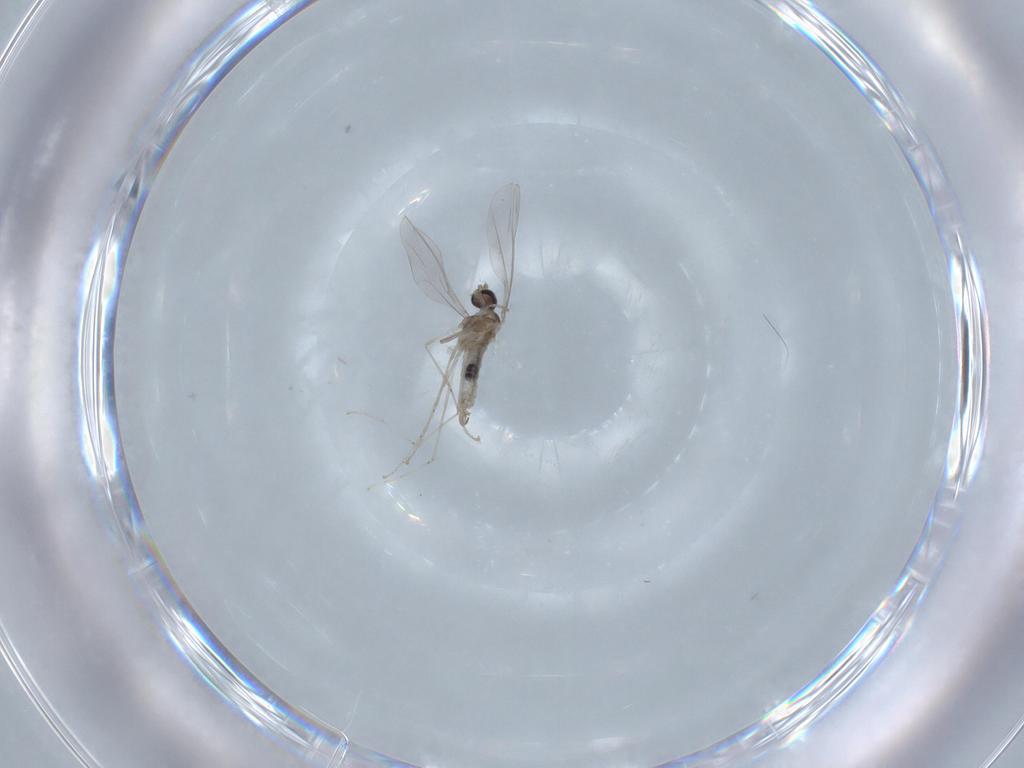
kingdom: Animalia
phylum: Arthropoda
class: Insecta
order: Diptera
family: Cecidomyiidae
